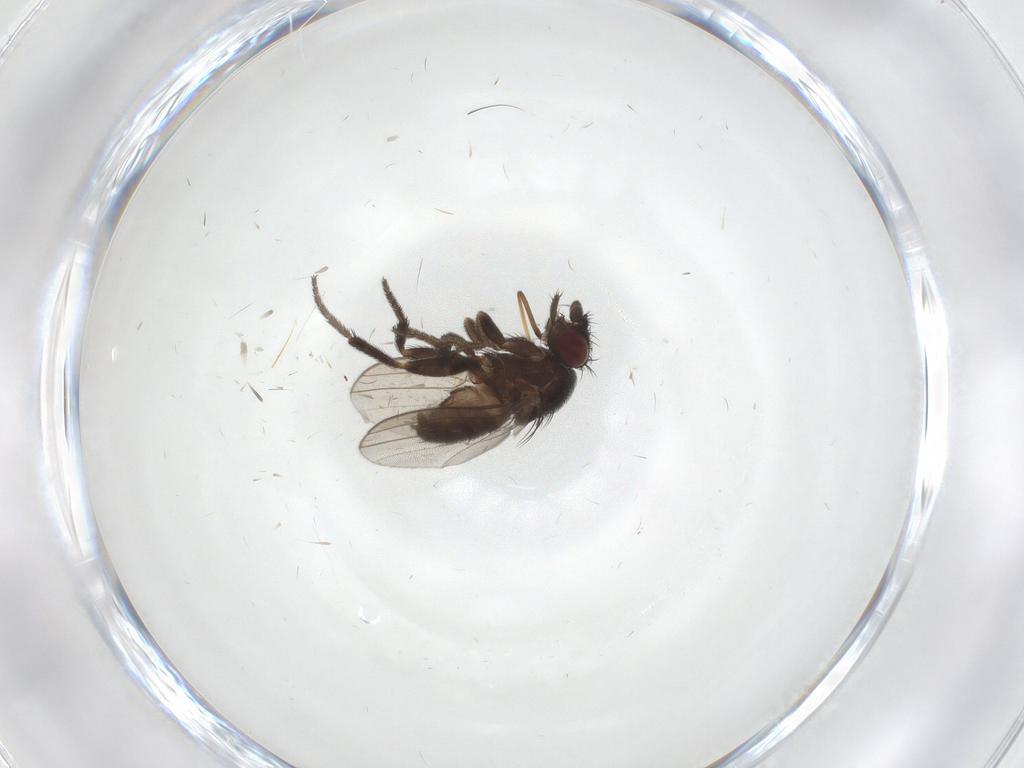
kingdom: Animalia
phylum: Arthropoda
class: Insecta
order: Diptera
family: Milichiidae
